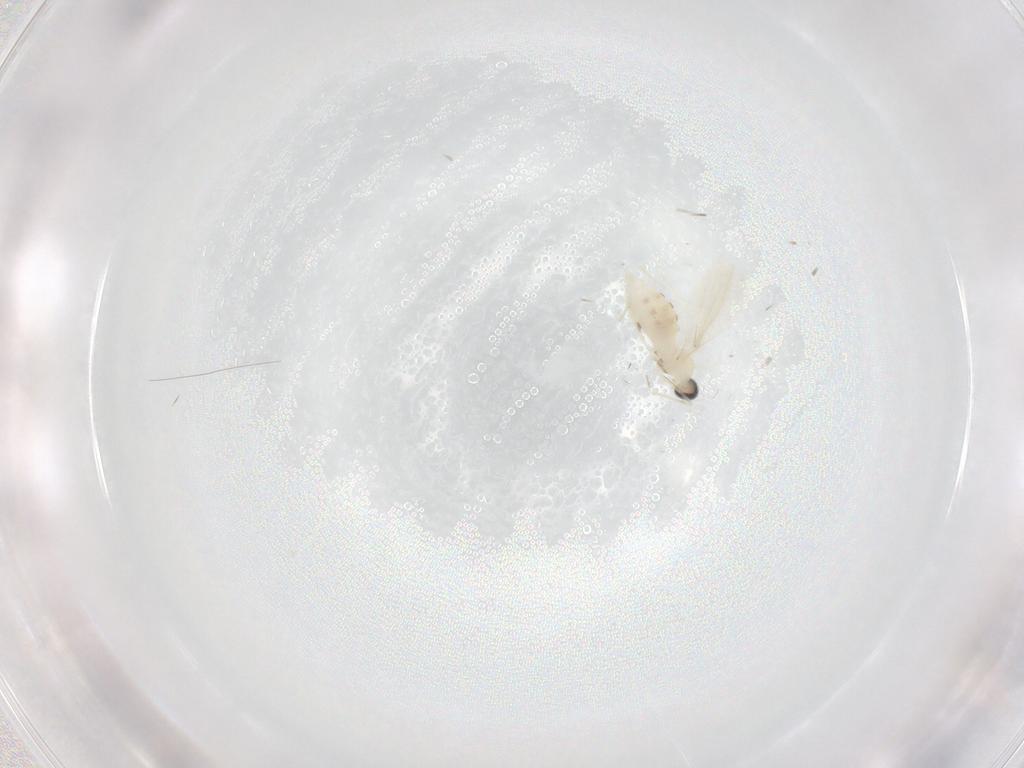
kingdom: Animalia
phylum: Arthropoda
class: Insecta
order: Diptera
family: Cecidomyiidae
